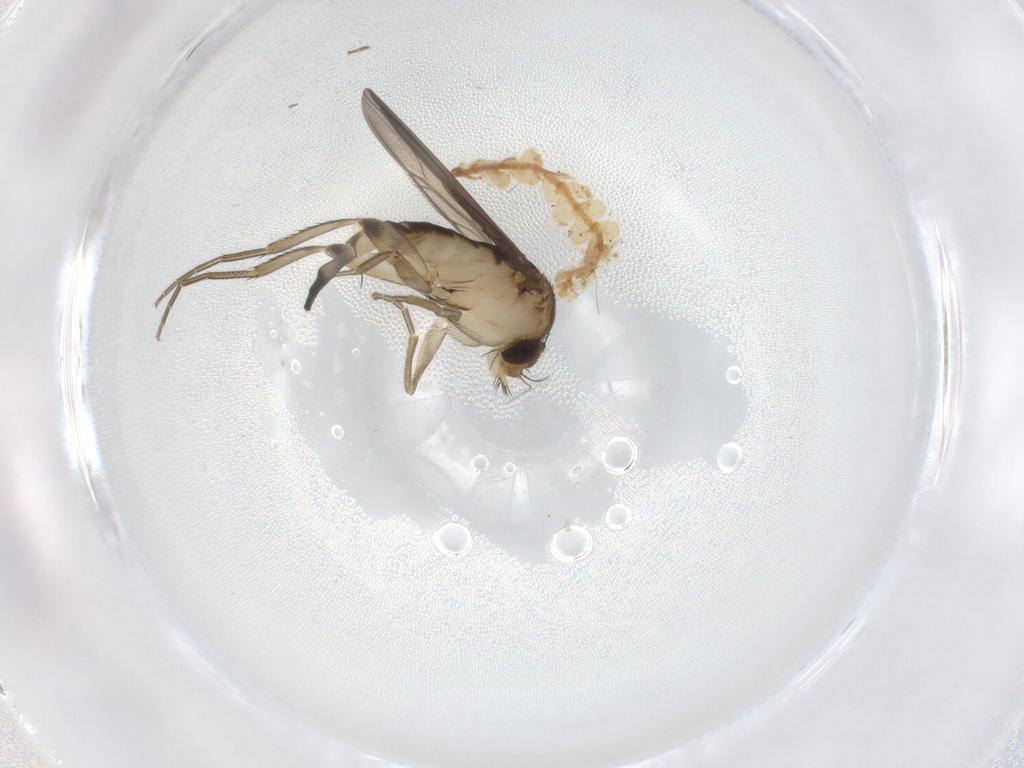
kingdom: Animalia
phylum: Arthropoda
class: Insecta
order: Diptera
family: Phoridae
